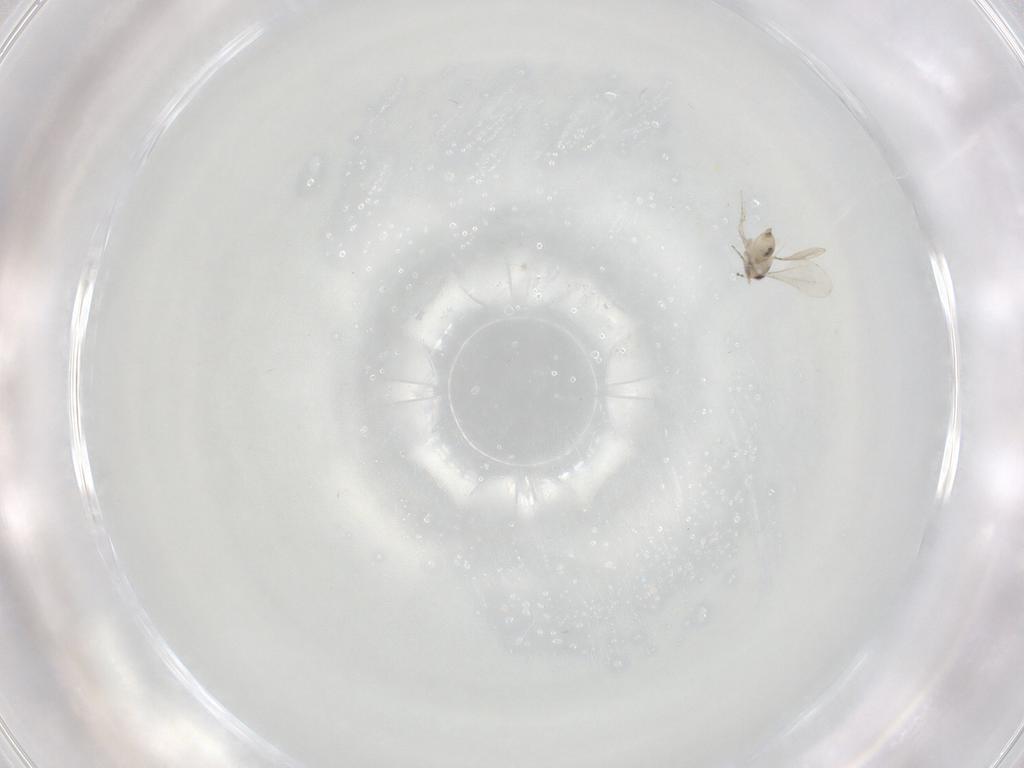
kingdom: Animalia
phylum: Arthropoda
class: Insecta
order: Diptera
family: Cecidomyiidae
